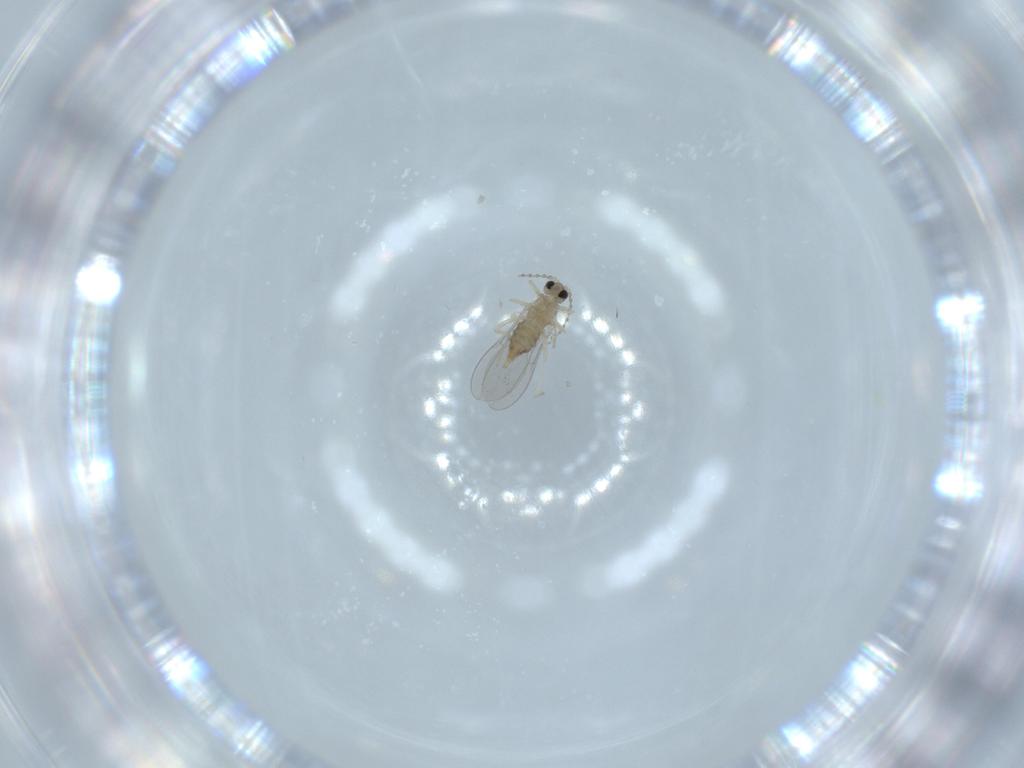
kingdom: Animalia
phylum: Arthropoda
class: Insecta
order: Diptera
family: Cecidomyiidae
